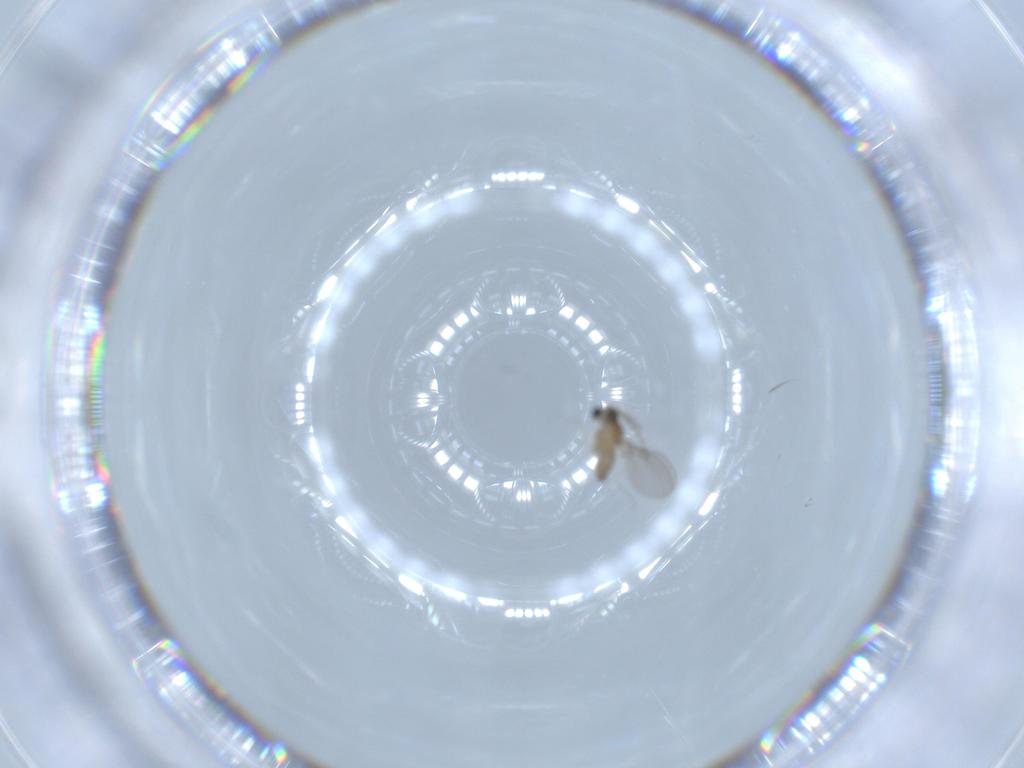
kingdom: Animalia
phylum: Arthropoda
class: Insecta
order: Diptera
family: Cecidomyiidae
